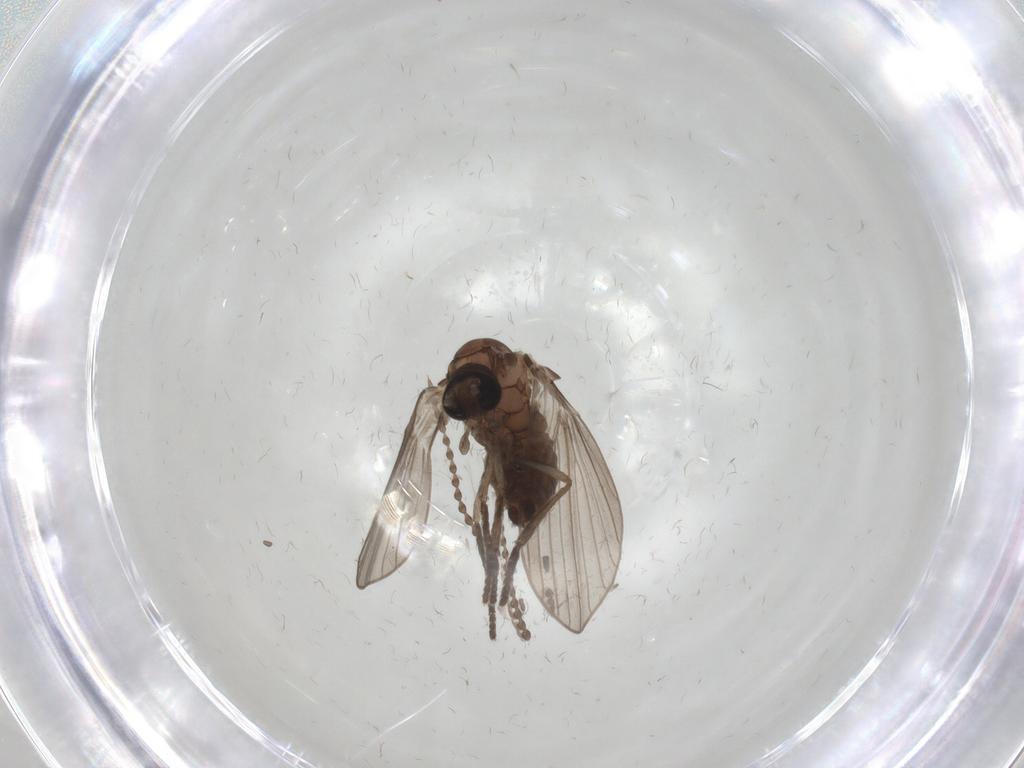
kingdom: Animalia
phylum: Arthropoda
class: Insecta
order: Diptera
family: Psychodidae
